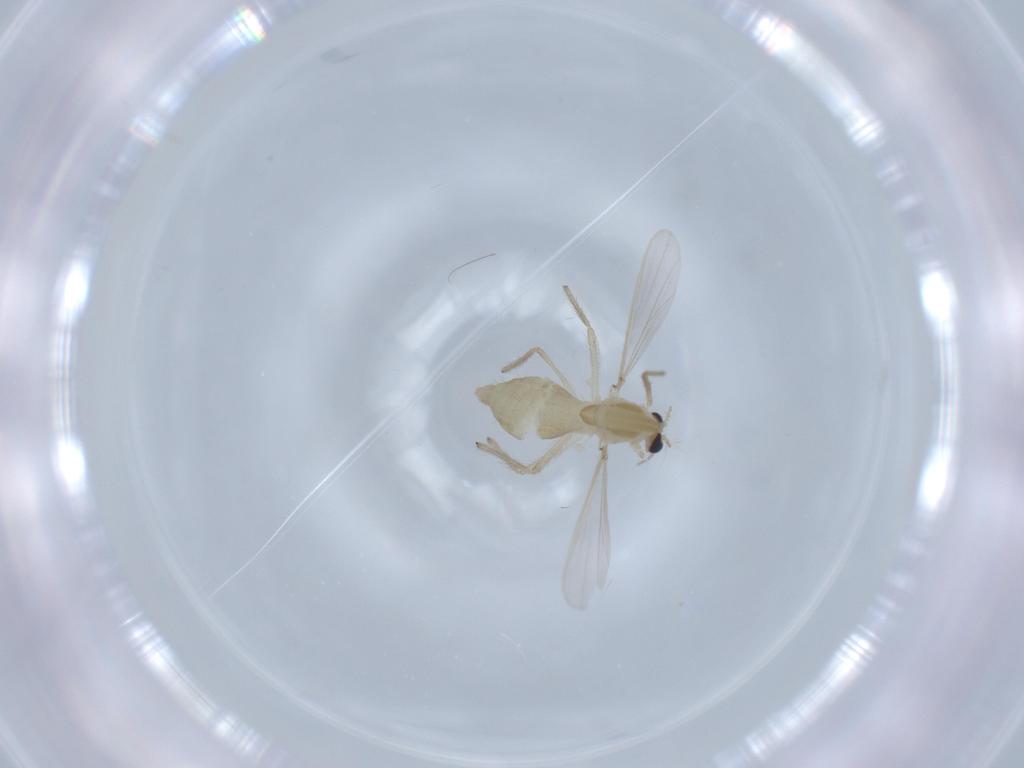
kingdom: Animalia
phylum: Arthropoda
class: Insecta
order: Diptera
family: Chironomidae
